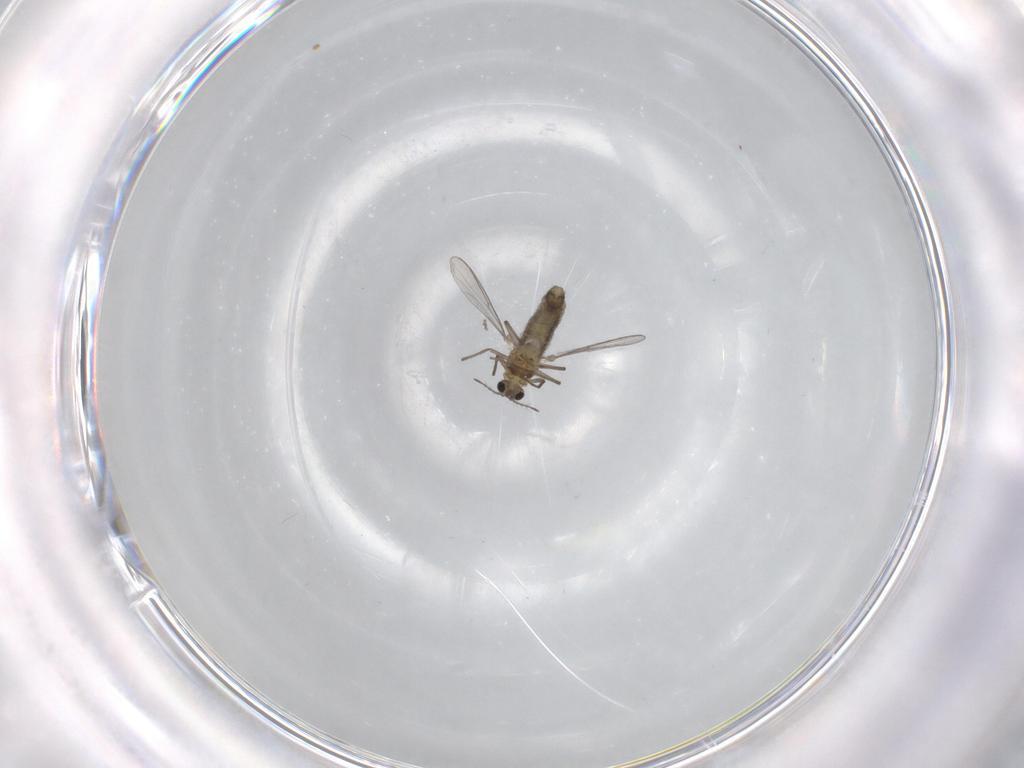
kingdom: Animalia
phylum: Arthropoda
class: Insecta
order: Diptera
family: Chironomidae
